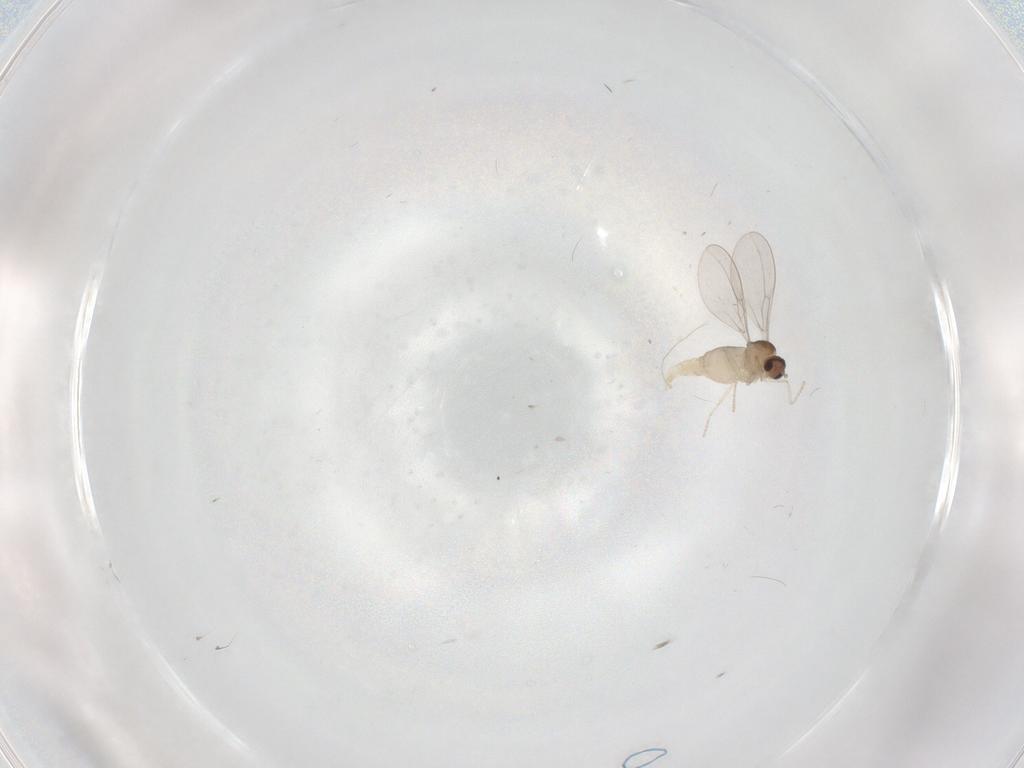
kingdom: Animalia
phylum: Arthropoda
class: Insecta
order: Diptera
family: Cecidomyiidae
